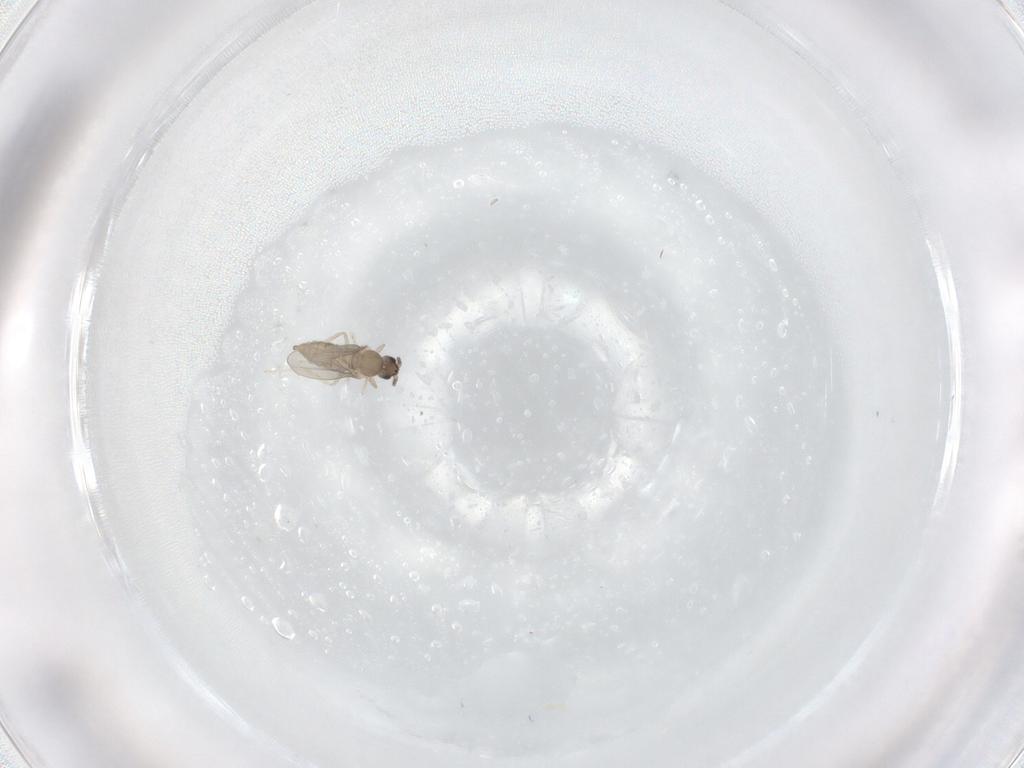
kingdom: Animalia
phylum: Arthropoda
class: Insecta
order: Diptera
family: Cecidomyiidae
